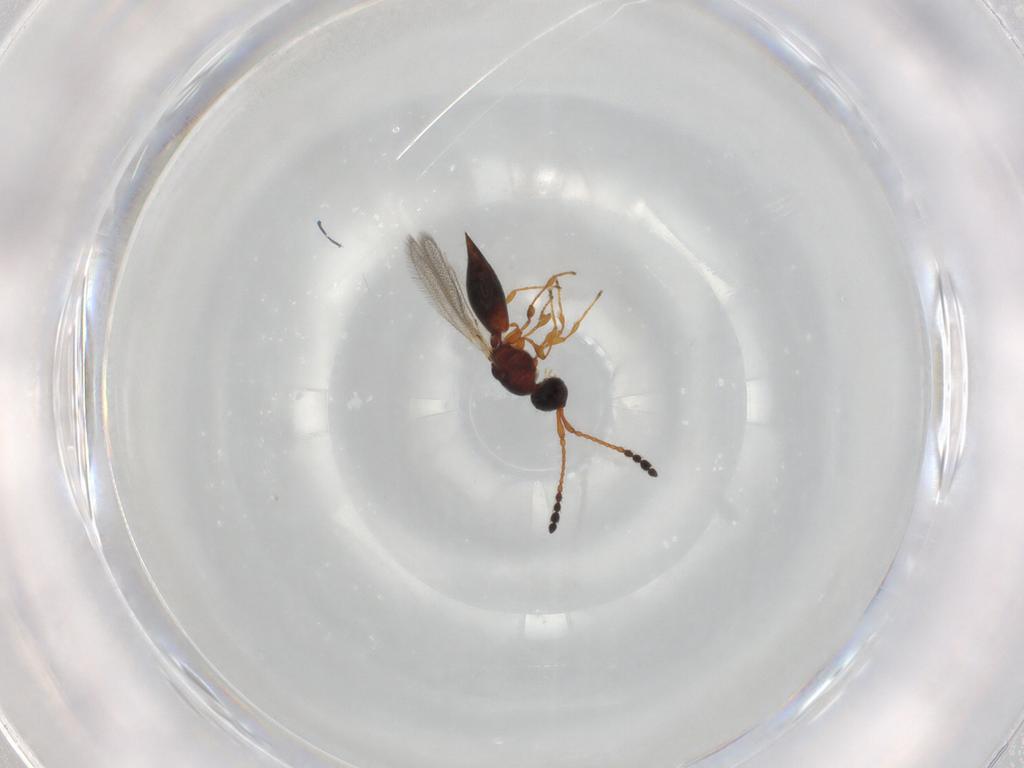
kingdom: Animalia
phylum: Arthropoda
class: Insecta
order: Hymenoptera
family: Diapriidae
